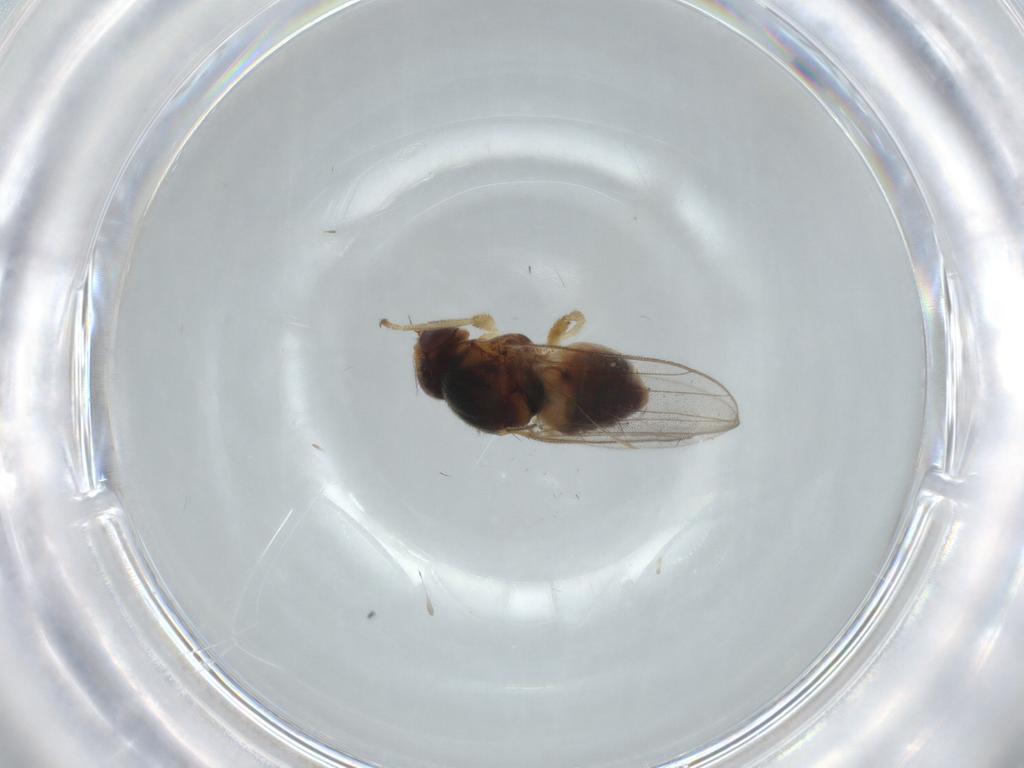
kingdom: Animalia
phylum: Arthropoda
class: Insecta
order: Diptera
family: Chloropidae
